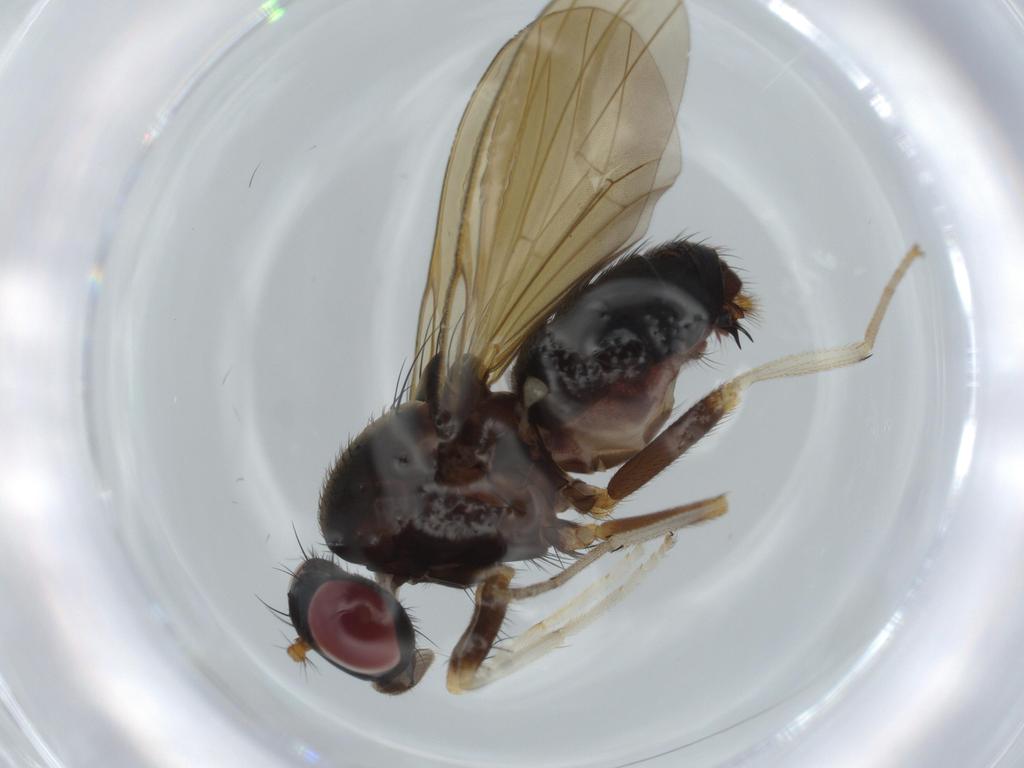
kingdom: Animalia
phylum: Arthropoda
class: Insecta
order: Diptera
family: Lauxaniidae
